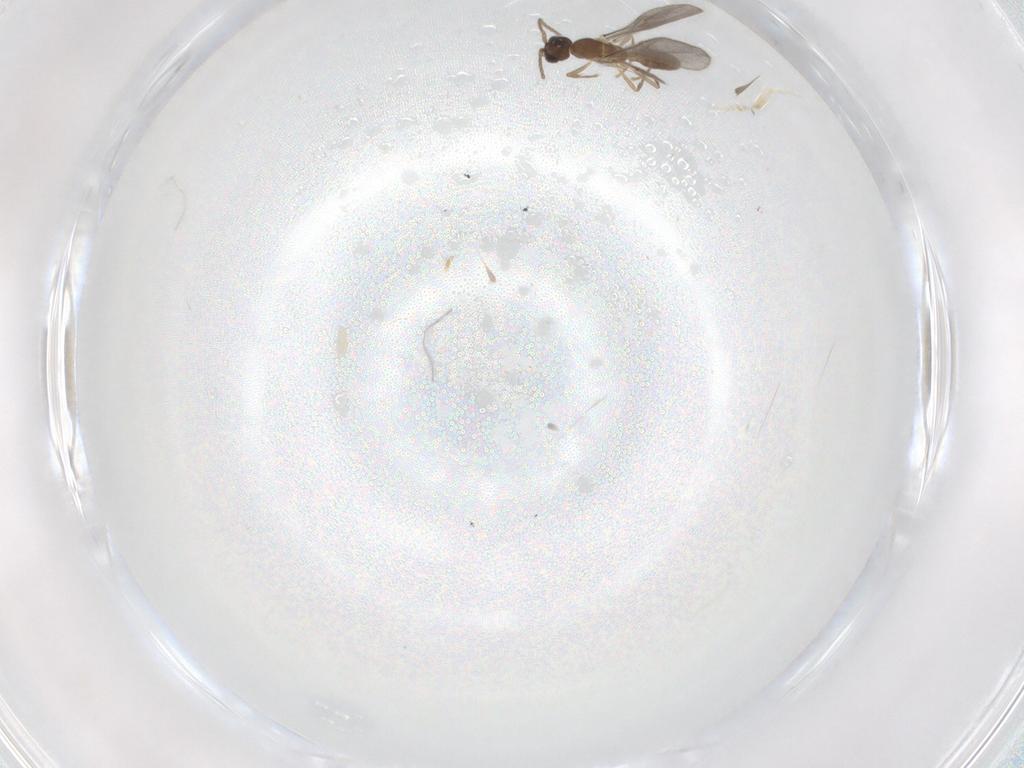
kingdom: Animalia
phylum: Arthropoda
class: Insecta
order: Hymenoptera
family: Formicidae
